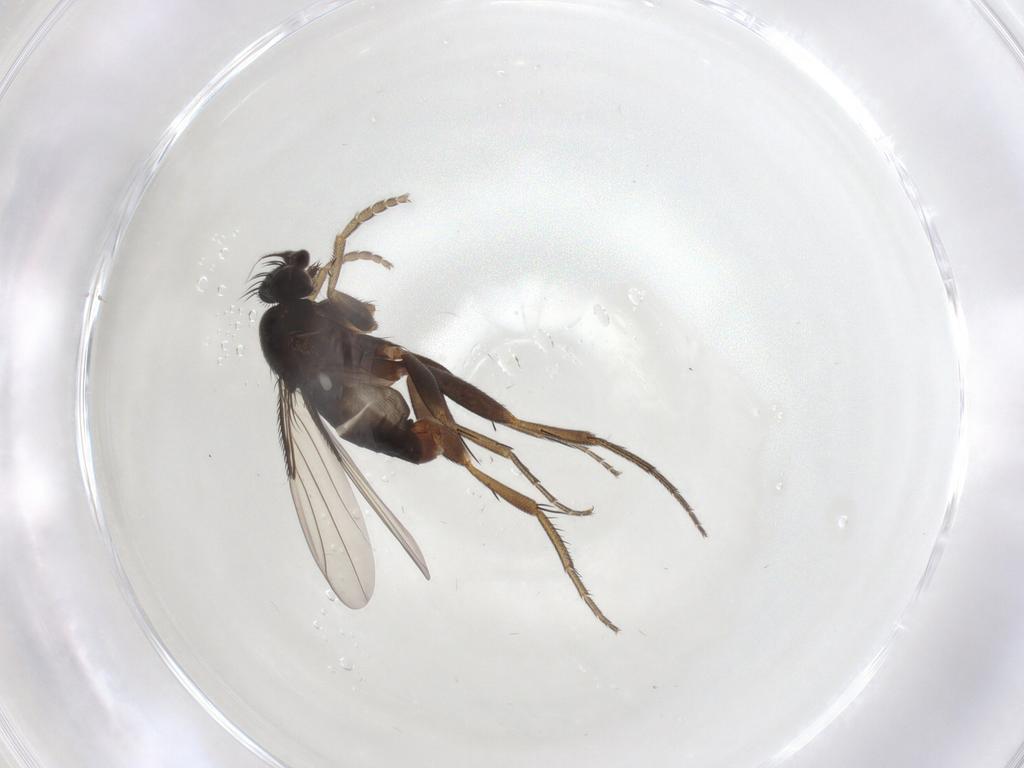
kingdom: Animalia
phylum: Arthropoda
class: Insecta
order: Diptera
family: Phoridae
